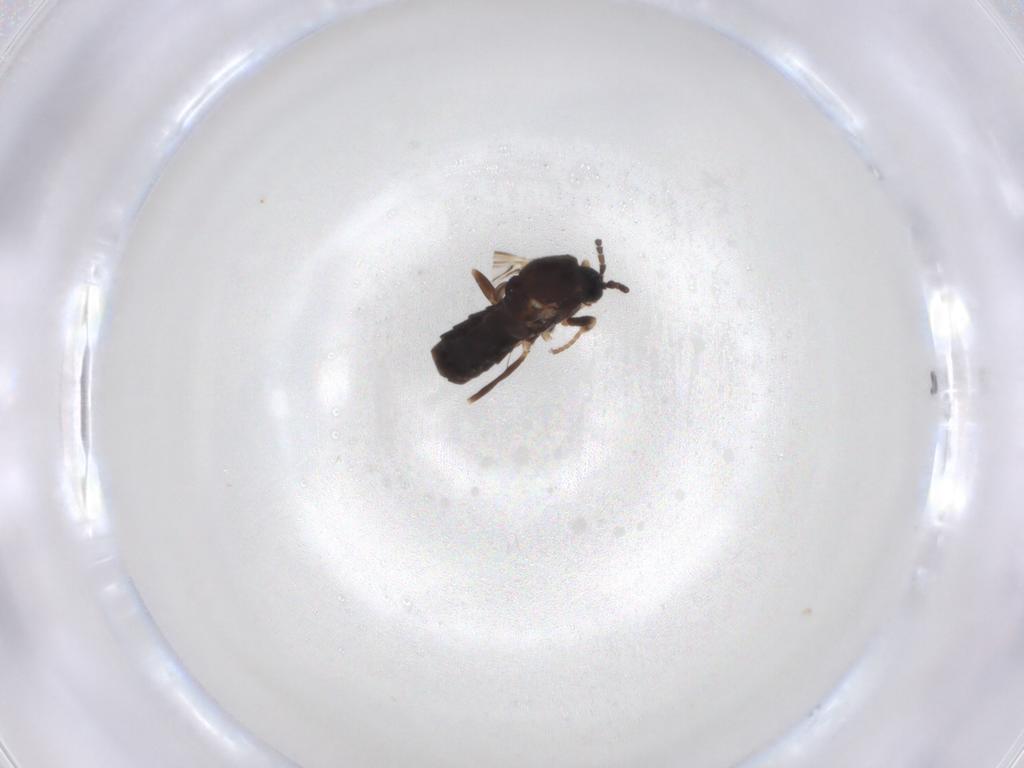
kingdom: Animalia
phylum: Arthropoda
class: Insecta
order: Diptera
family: Scatopsidae
